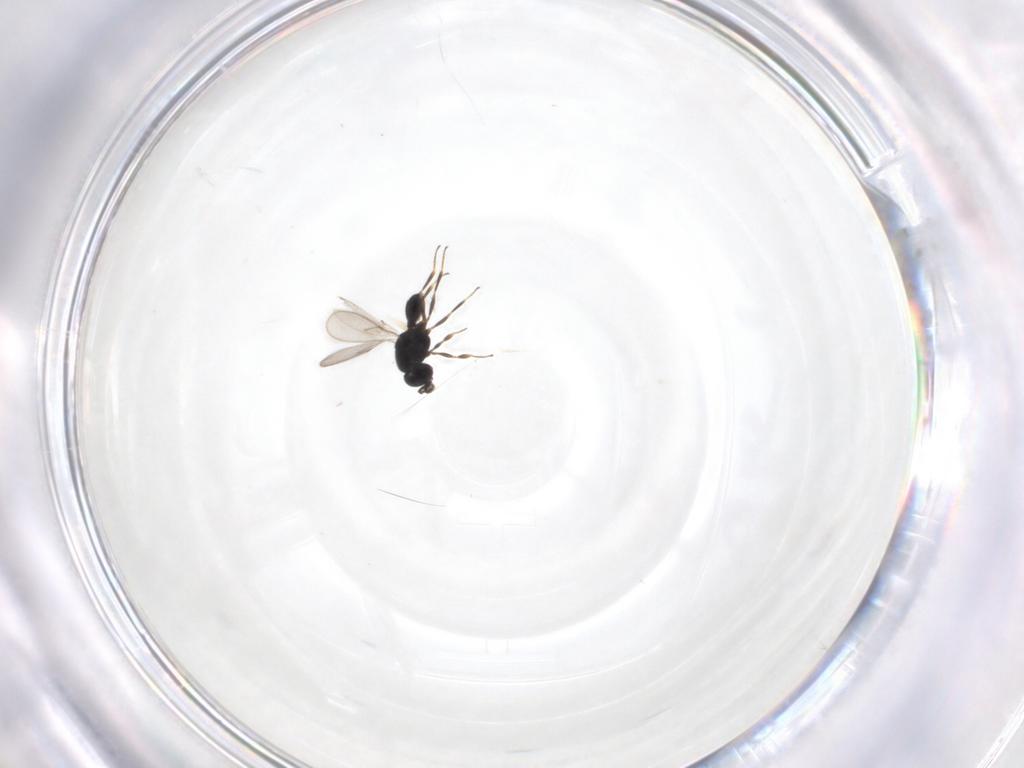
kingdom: Animalia
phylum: Arthropoda
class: Insecta
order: Hymenoptera
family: Scelionidae
